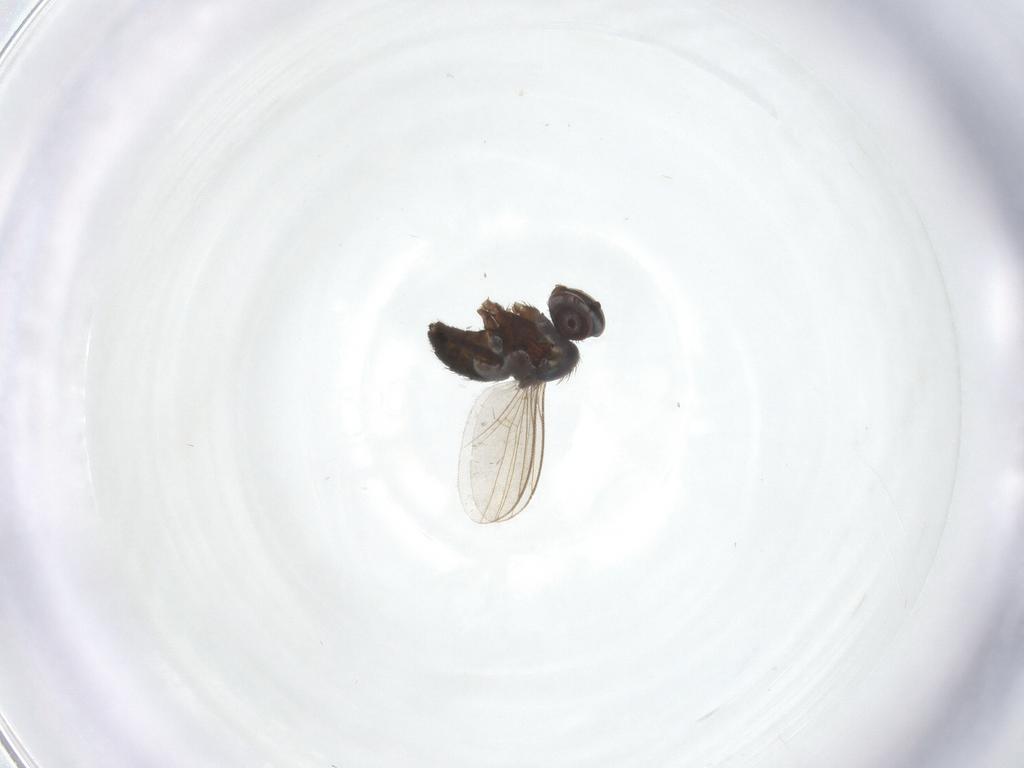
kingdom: Animalia
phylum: Arthropoda
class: Insecta
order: Diptera
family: Dolichopodidae
